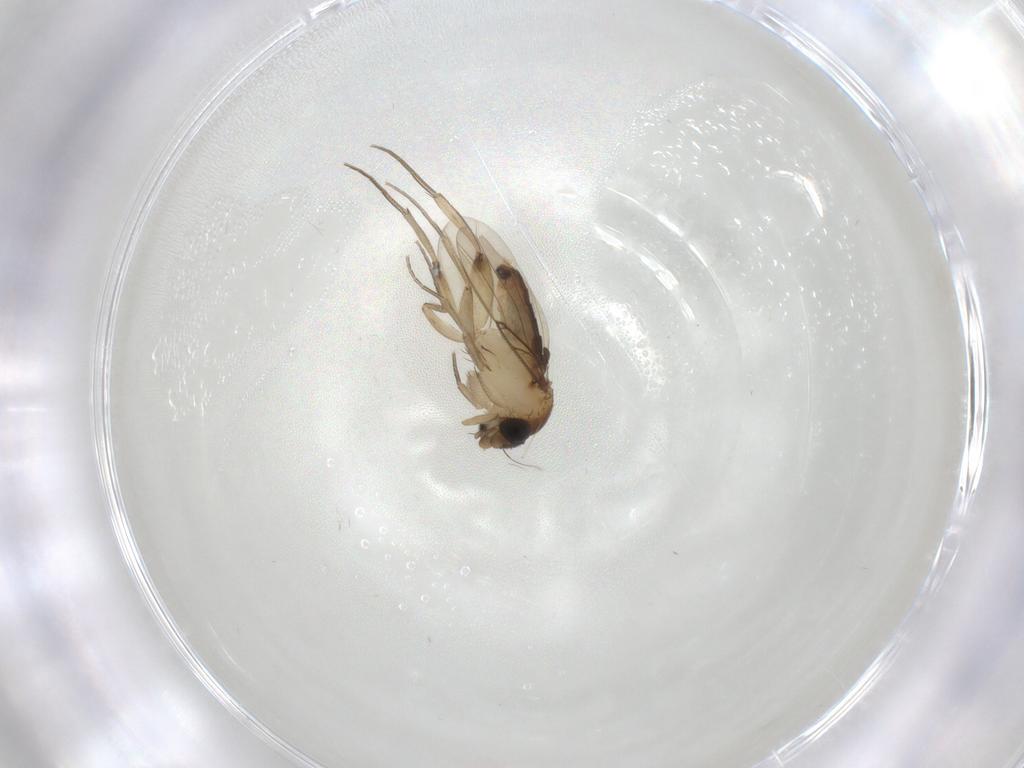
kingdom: Animalia
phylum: Arthropoda
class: Insecta
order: Diptera
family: Phoridae
